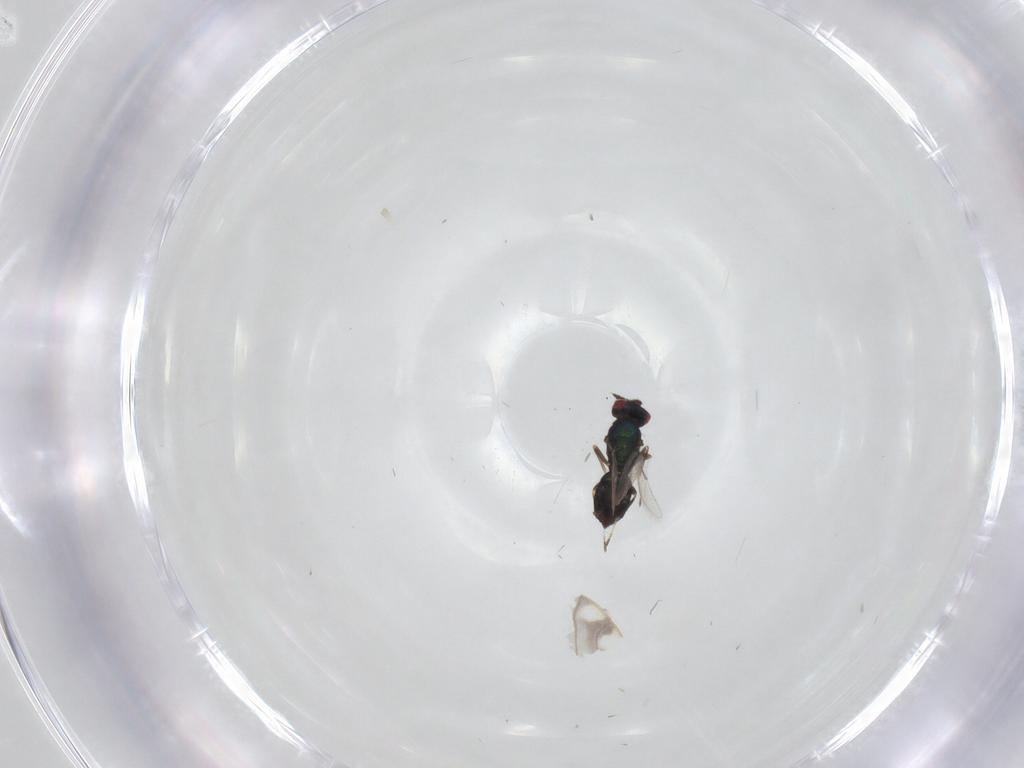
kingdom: Animalia
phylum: Arthropoda
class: Insecta
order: Hymenoptera
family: Eulophidae
